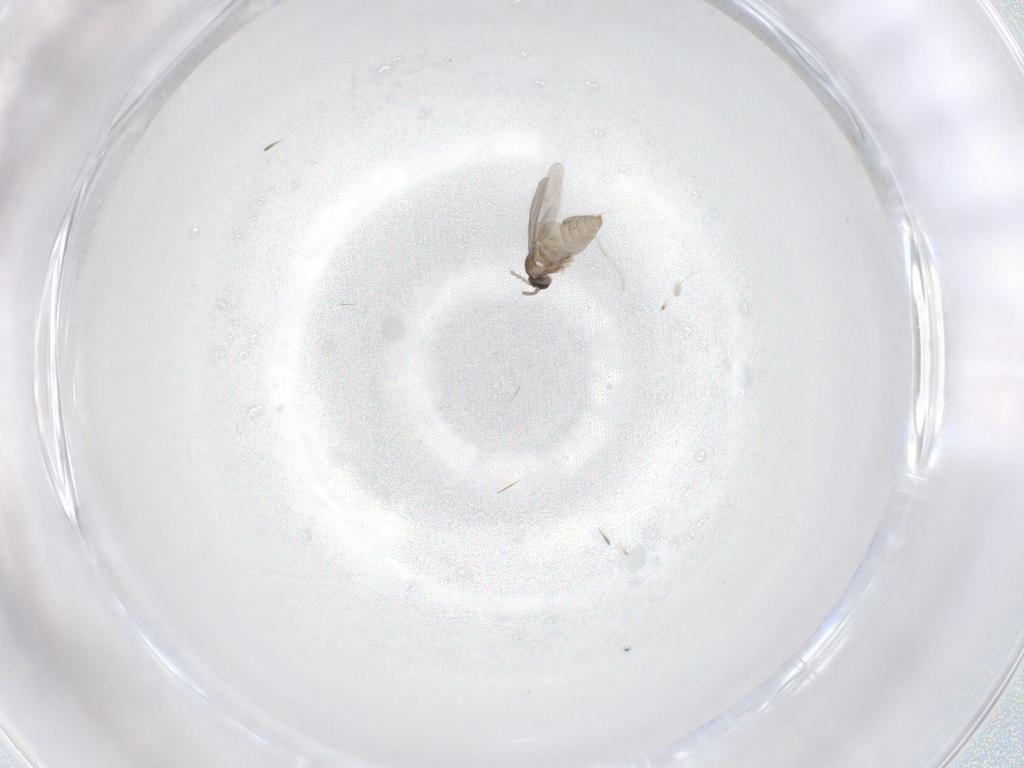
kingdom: Animalia
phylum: Arthropoda
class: Insecta
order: Diptera
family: Cecidomyiidae
